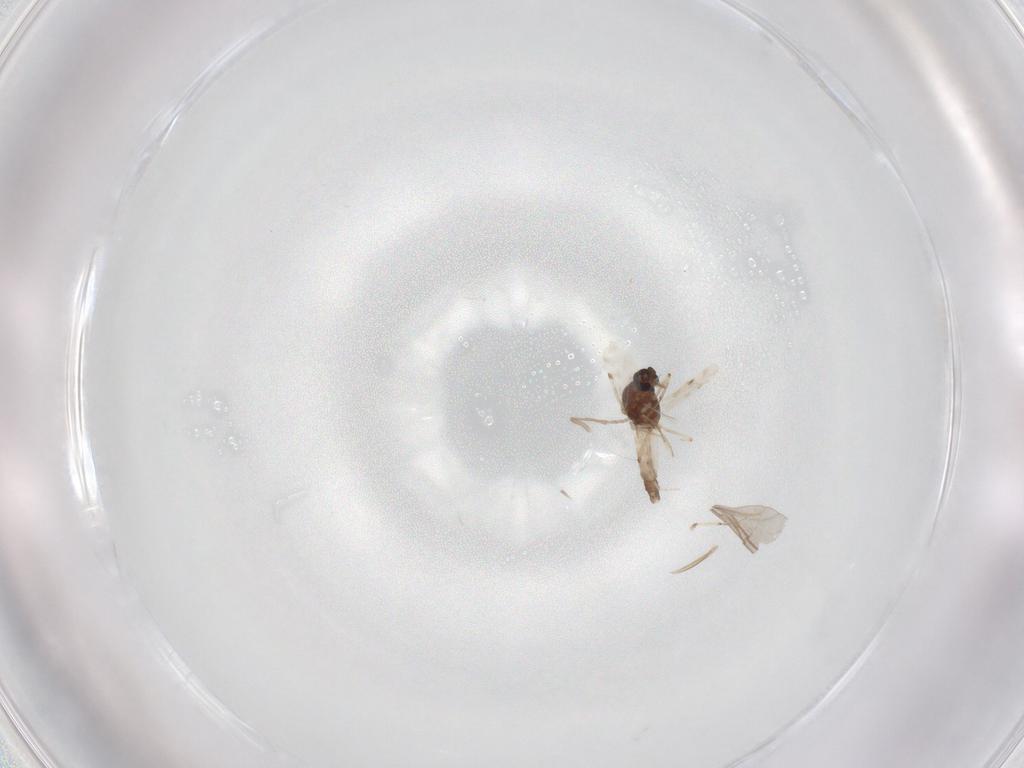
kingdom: Animalia
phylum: Arthropoda
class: Insecta
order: Diptera
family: Psychodidae
